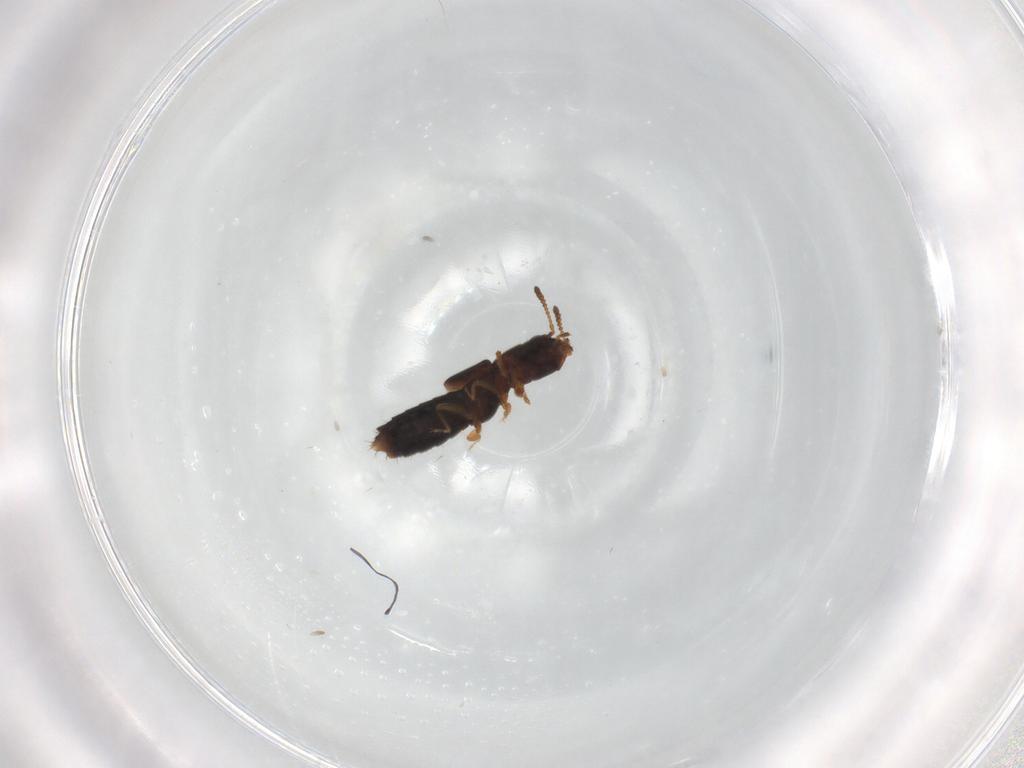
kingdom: Animalia
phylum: Arthropoda
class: Insecta
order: Coleoptera
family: Staphylinidae
